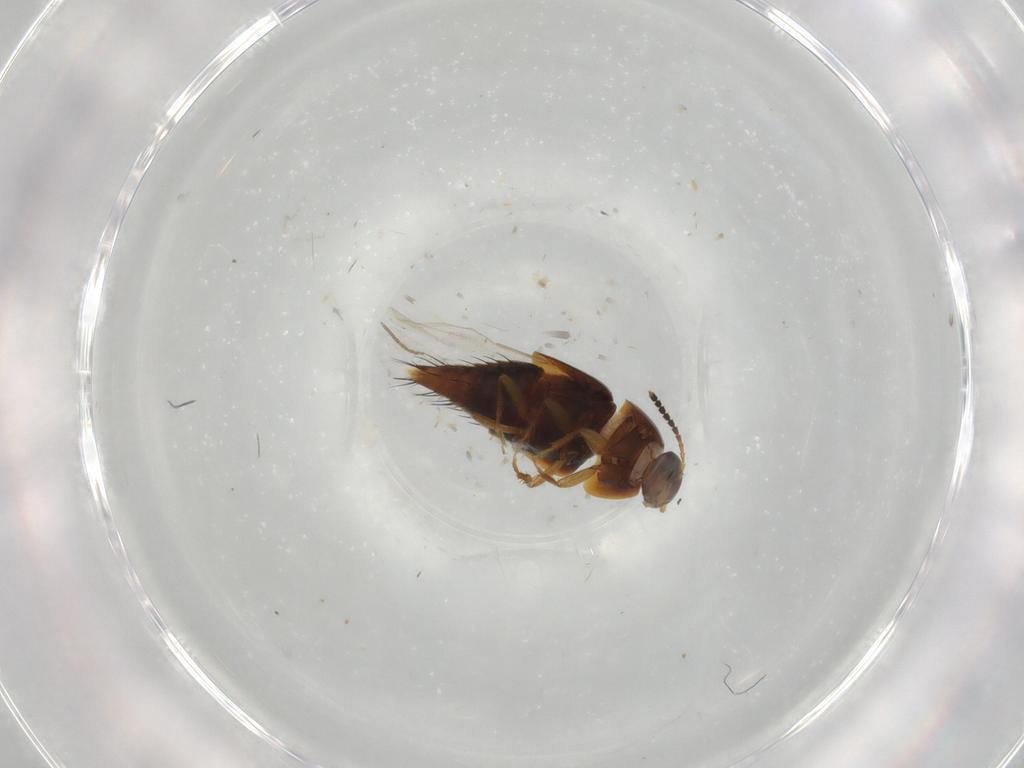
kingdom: Animalia
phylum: Arthropoda
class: Insecta
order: Coleoptera
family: Staphylinidae
